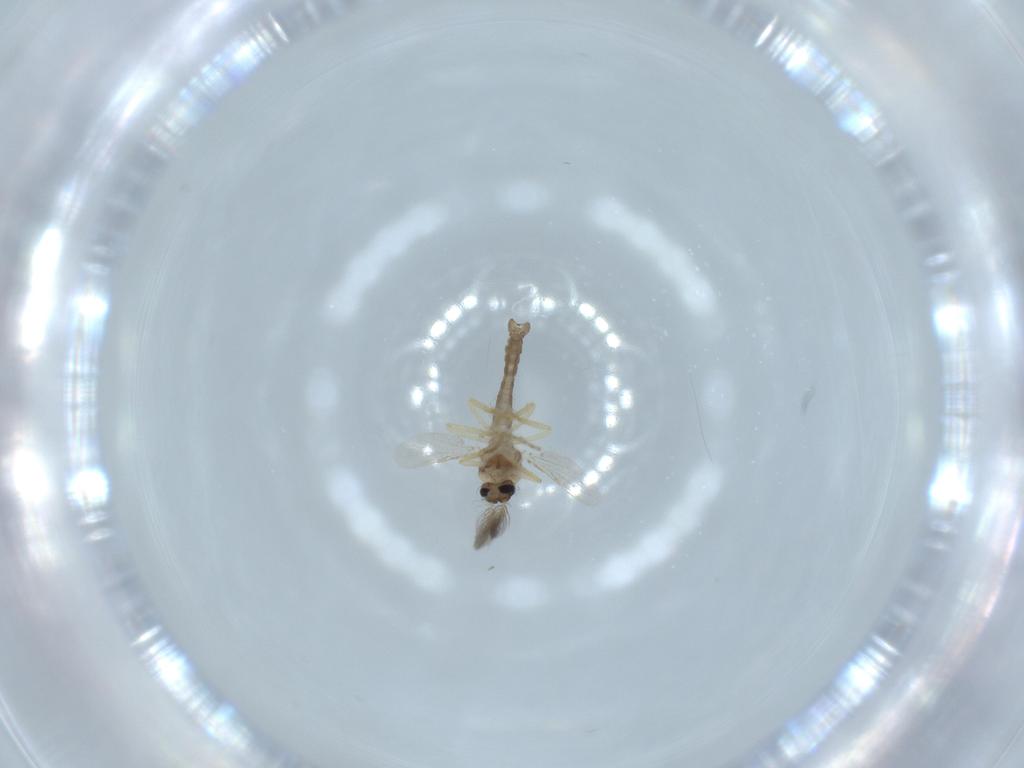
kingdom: Animalia
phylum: Arthropoda
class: Insecta
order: Diptera
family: Ceratopogonidae
